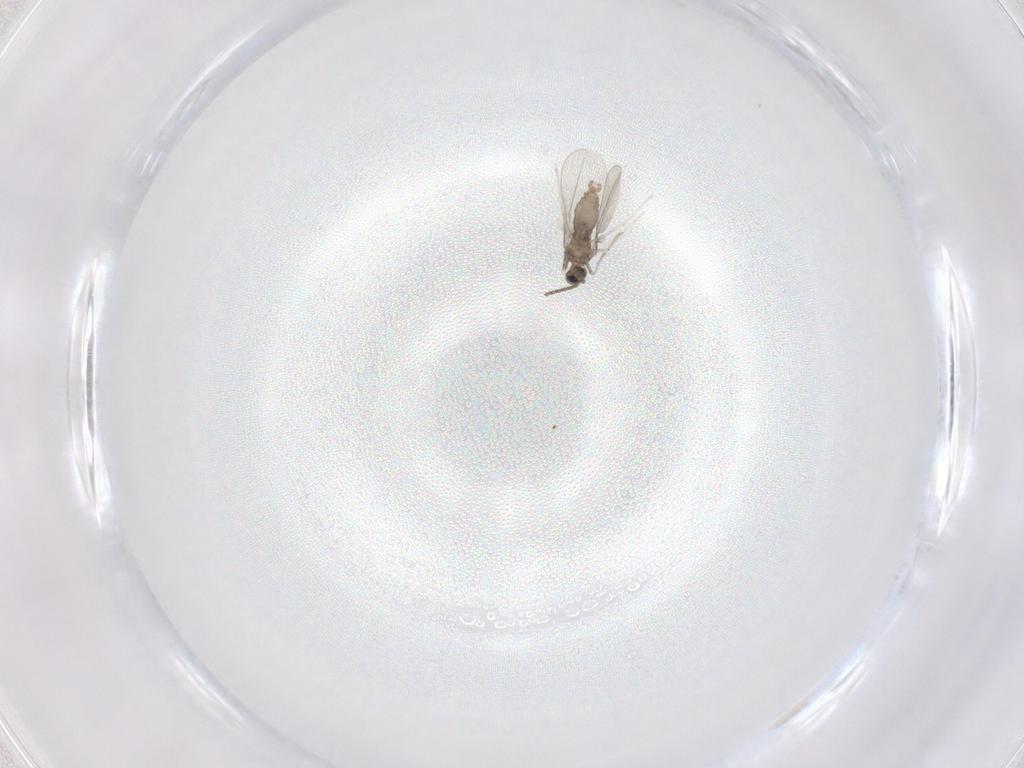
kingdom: Animalia
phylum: Arthropoda
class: Insecta
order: Diptera
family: Cecidomyiidae
